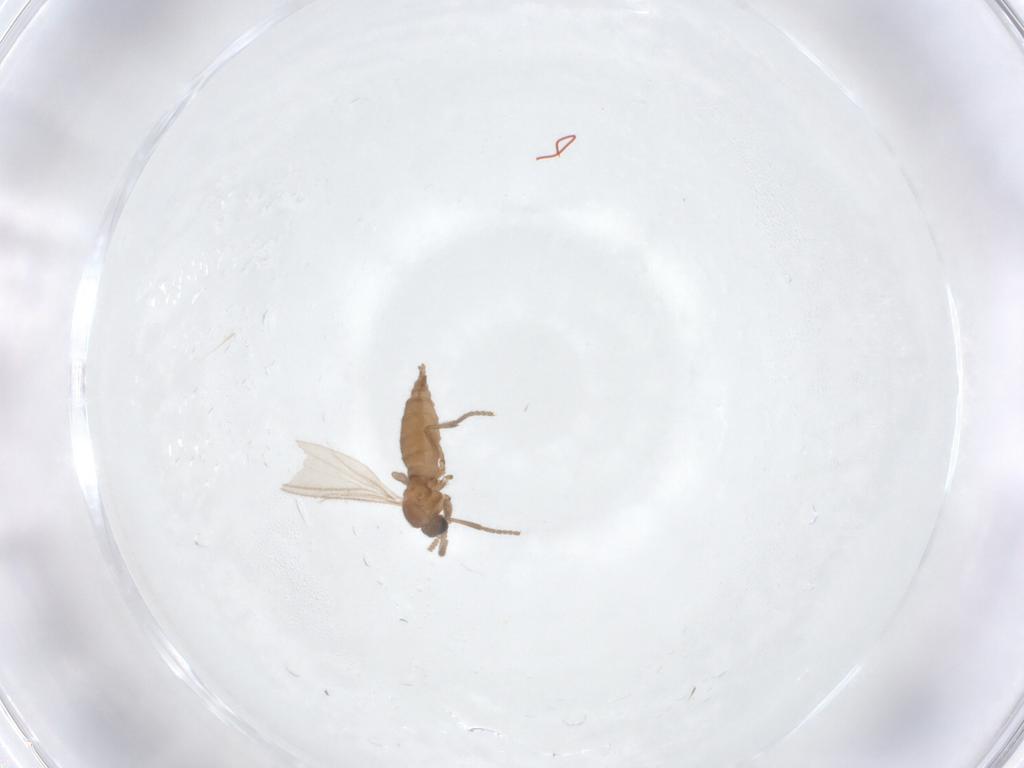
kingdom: Animalia
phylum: Arthropoda
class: Insecta
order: Diptera
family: Sciaridae
